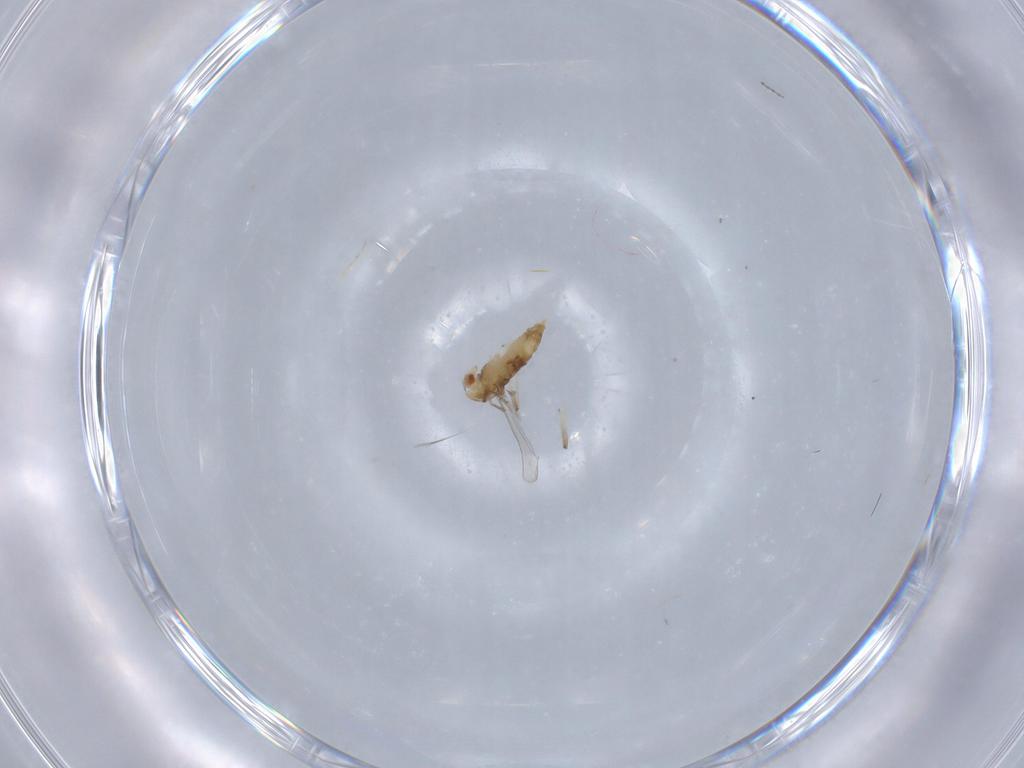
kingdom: Animalia
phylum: Arthropoda
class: Insecta
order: Diptera
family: Chironomidae
